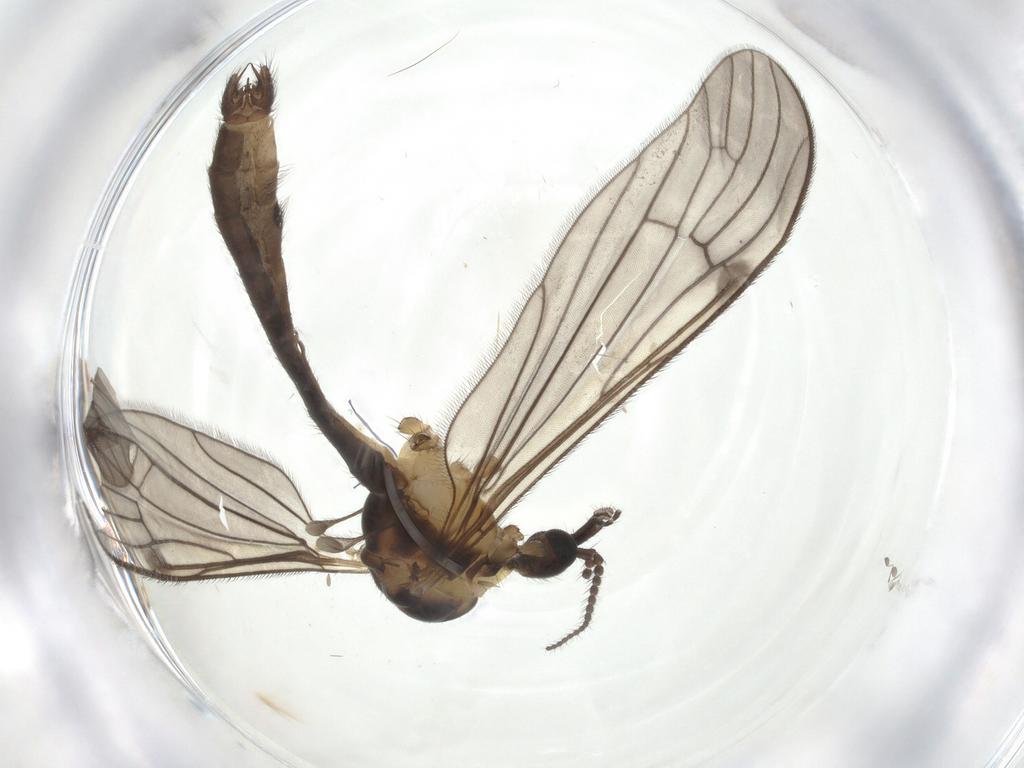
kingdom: Animalia
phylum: Arthropoda
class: Insecta
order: Diptera
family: Limoniidae
